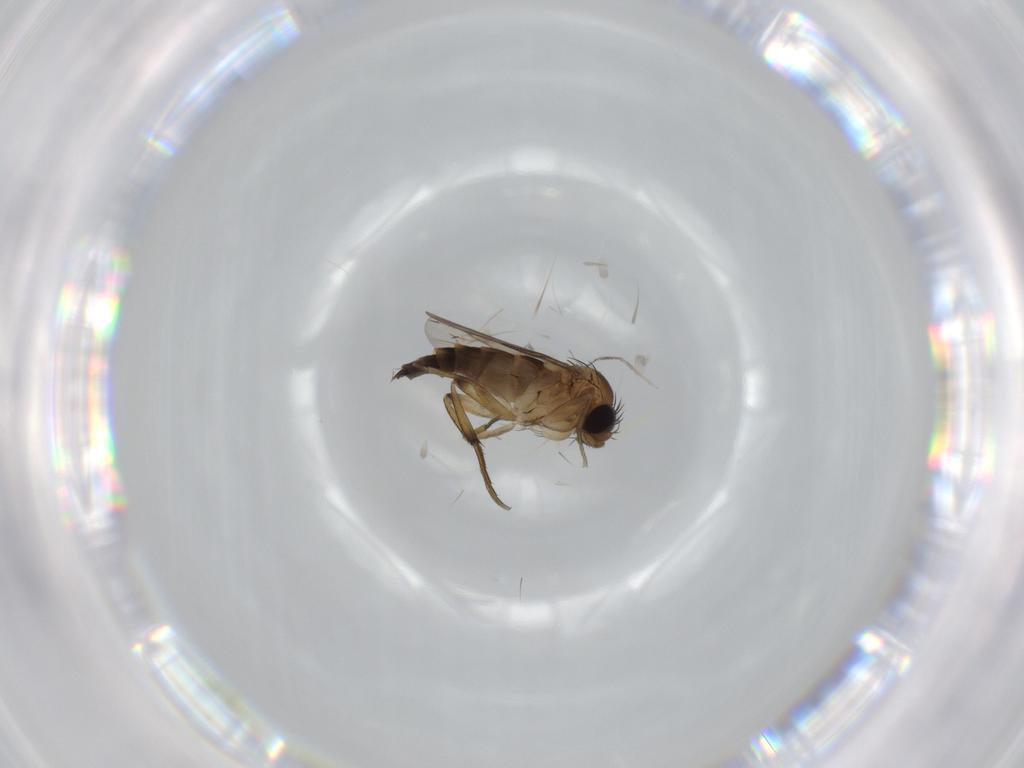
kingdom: Animalia
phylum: Arthropoda
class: Insecta
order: Diptera
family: Phoridae
